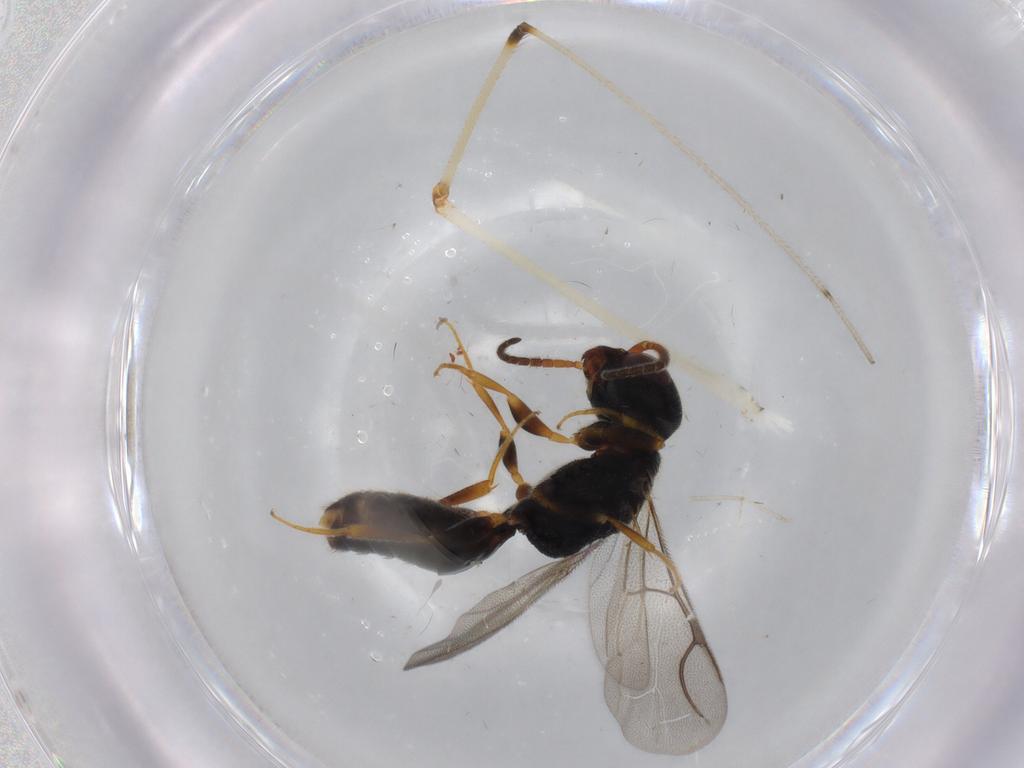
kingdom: Animalia
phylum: Arthropoda
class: Insecta
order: Hymenoptera
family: Bethylidae
